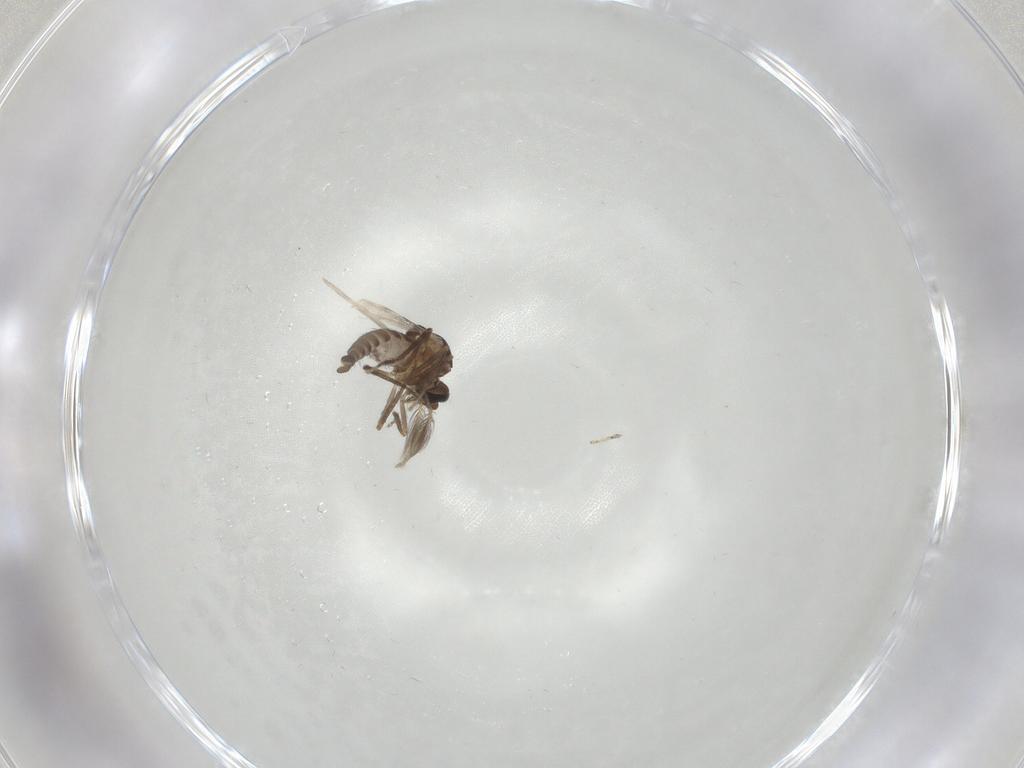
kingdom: Animalia
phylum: Arthropoda
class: Insecta
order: Diptera
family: Ceratopogonidae
